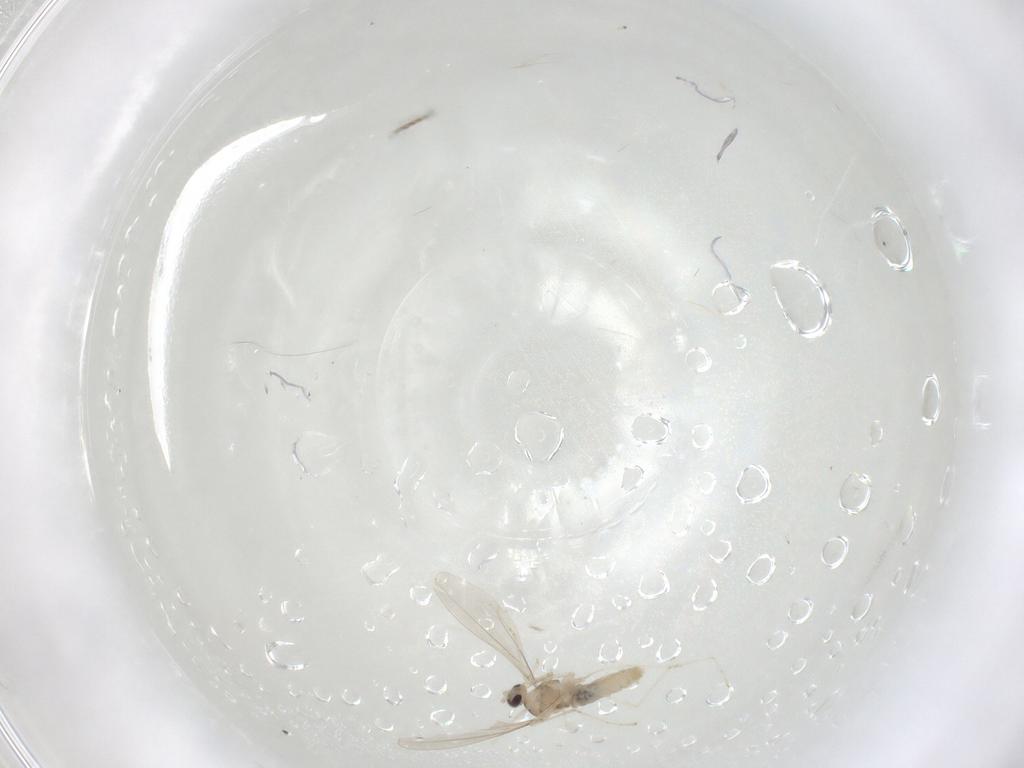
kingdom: Animalia
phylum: Arthropoda
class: Insecta
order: Diptera
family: Cecidomyiidae
